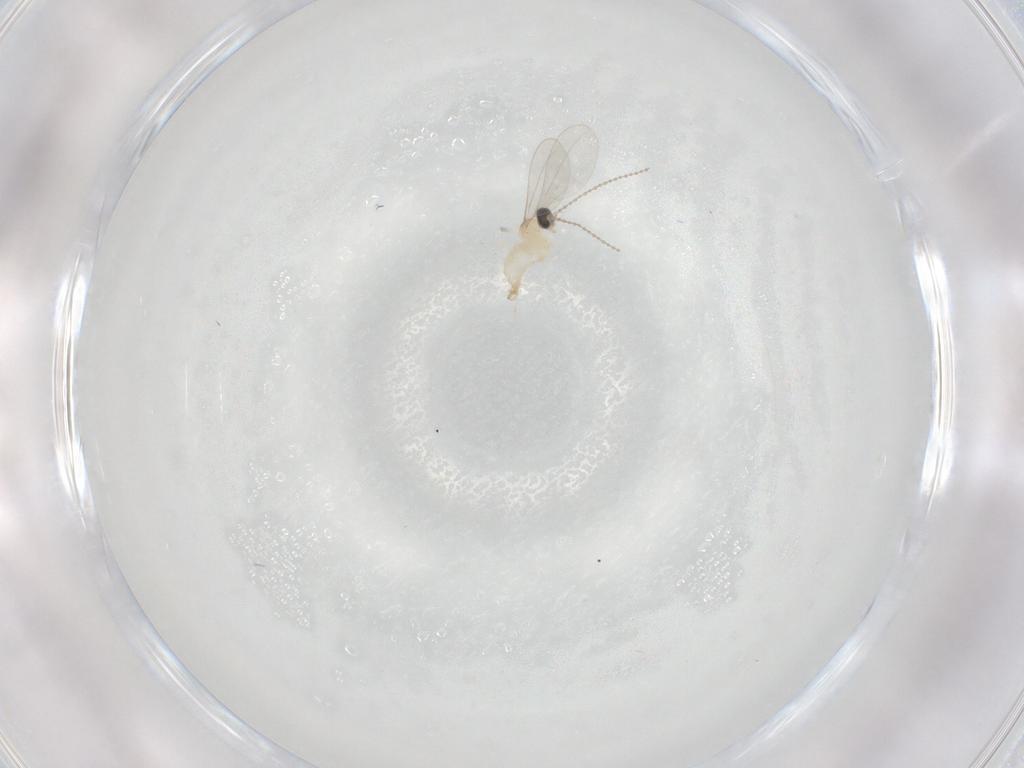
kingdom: Animalia
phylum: Arthropoda
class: Insecta
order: Diptera
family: Cecidomyiidae
